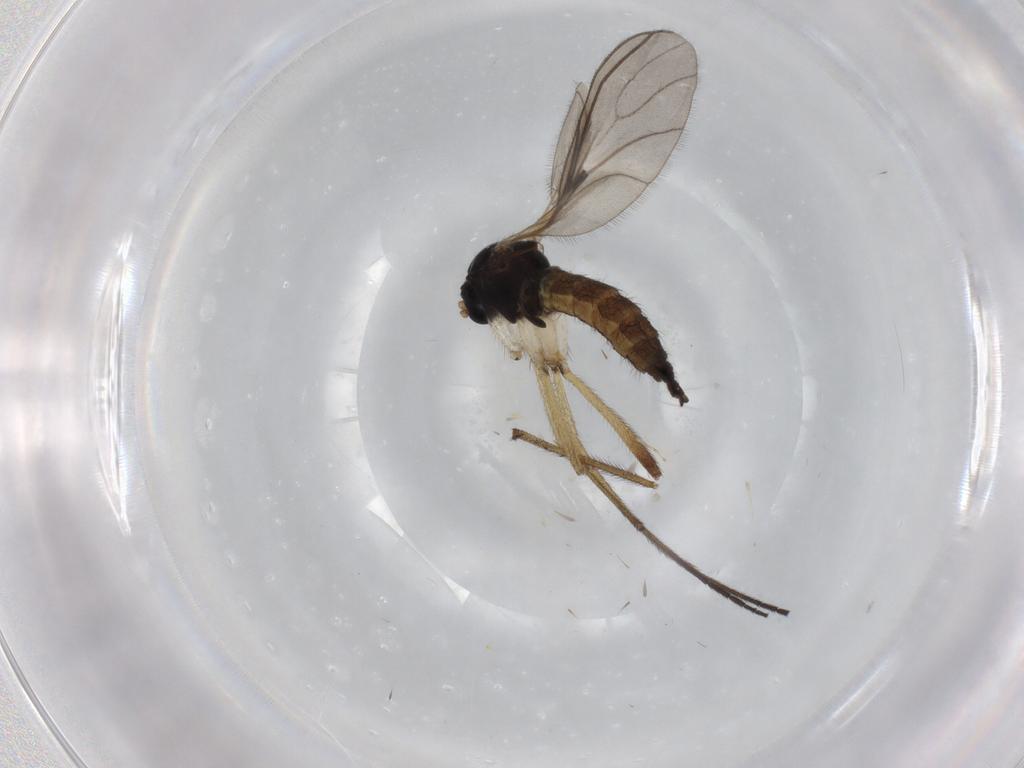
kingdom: Animalia
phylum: Arthropoda
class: Insecta
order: Diptera
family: Sciaridae
